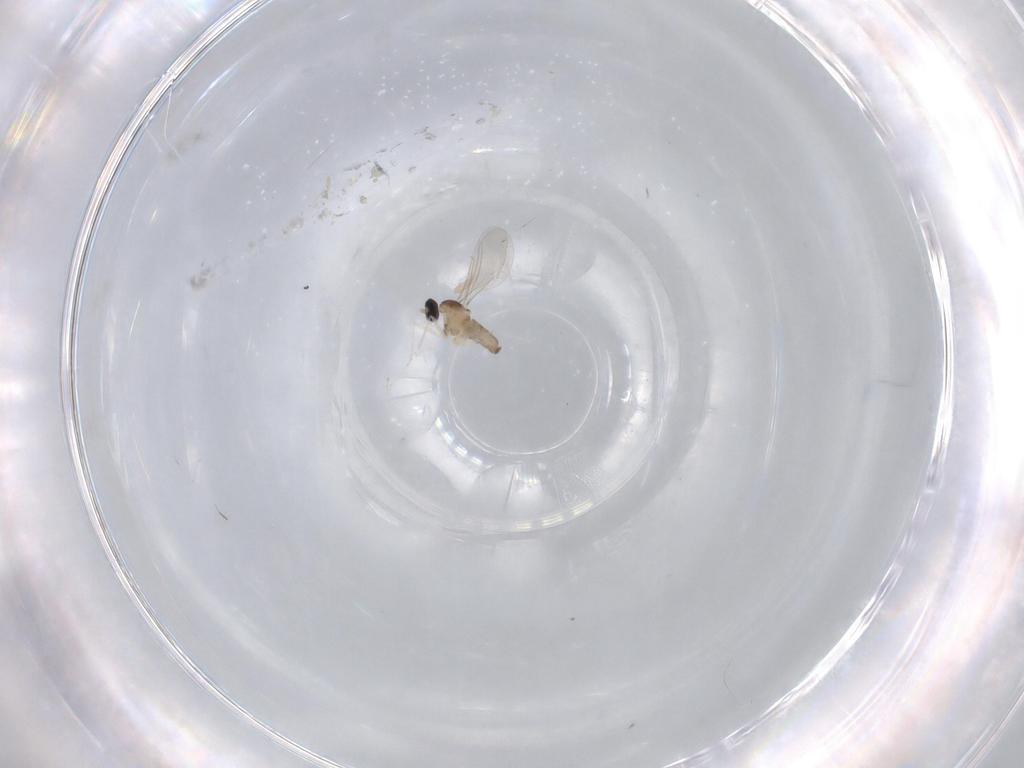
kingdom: Animalia
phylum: Arthropoda
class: Insecta
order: Diptera
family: Cecidomyiidae
